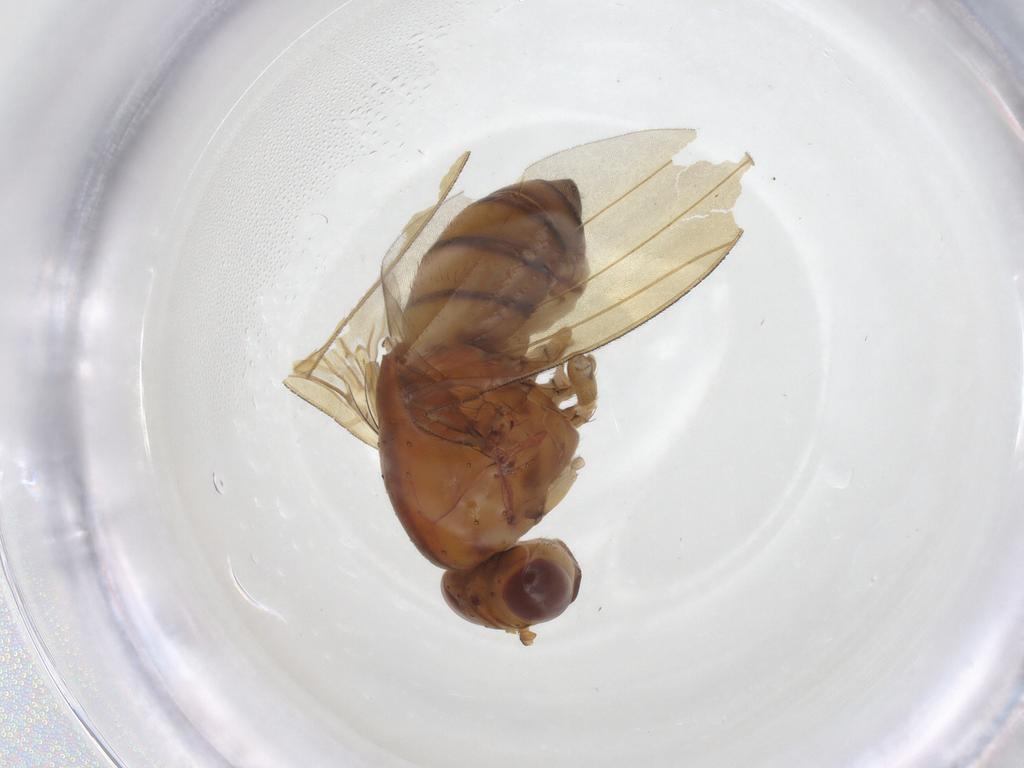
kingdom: Animalia
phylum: Arthropoda
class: Insecta
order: Diptera
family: Lauxaniidae
